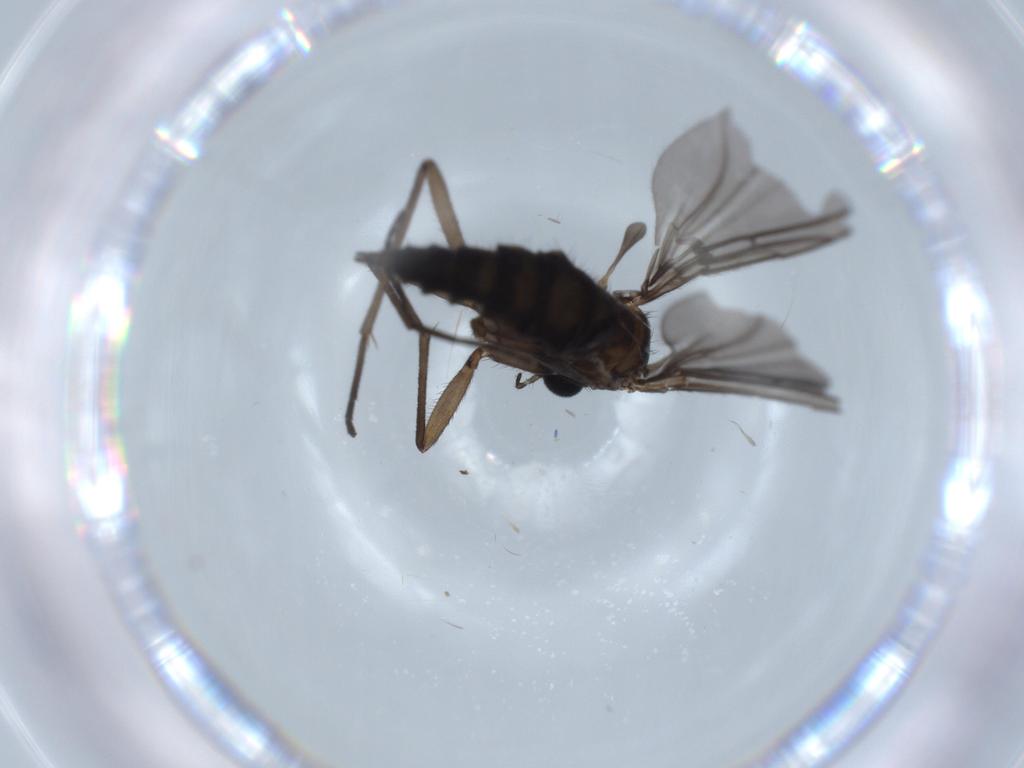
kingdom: Animalia
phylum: Arthropoda
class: Insecta
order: Diptera
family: Sciaridae
